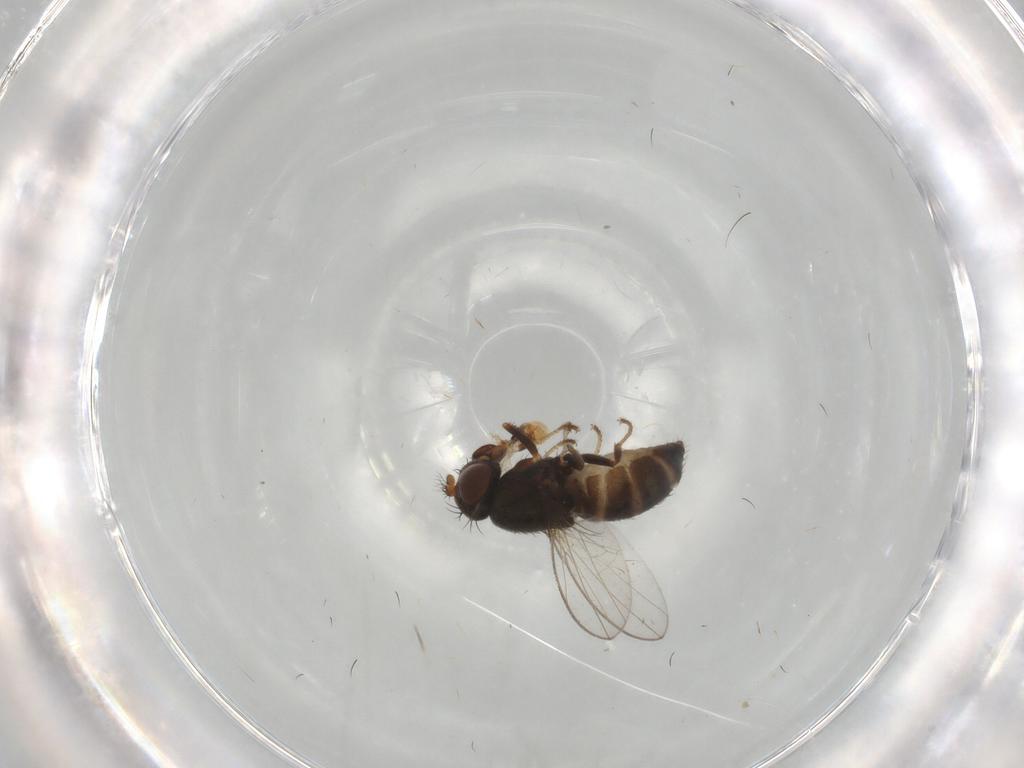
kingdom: Animalia
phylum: Arthropoda
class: Insecta
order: Diptera
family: Ephydridae
